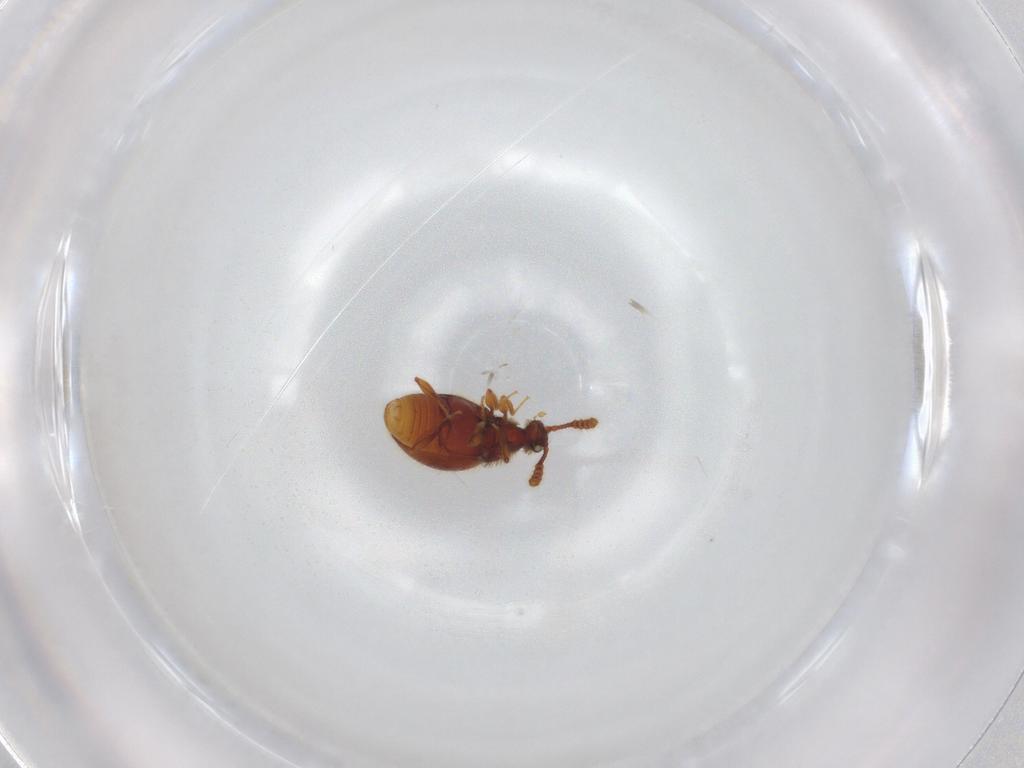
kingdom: Animalia
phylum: Arthropoda
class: Insecta
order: Coleoptera
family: Staphylinidae
